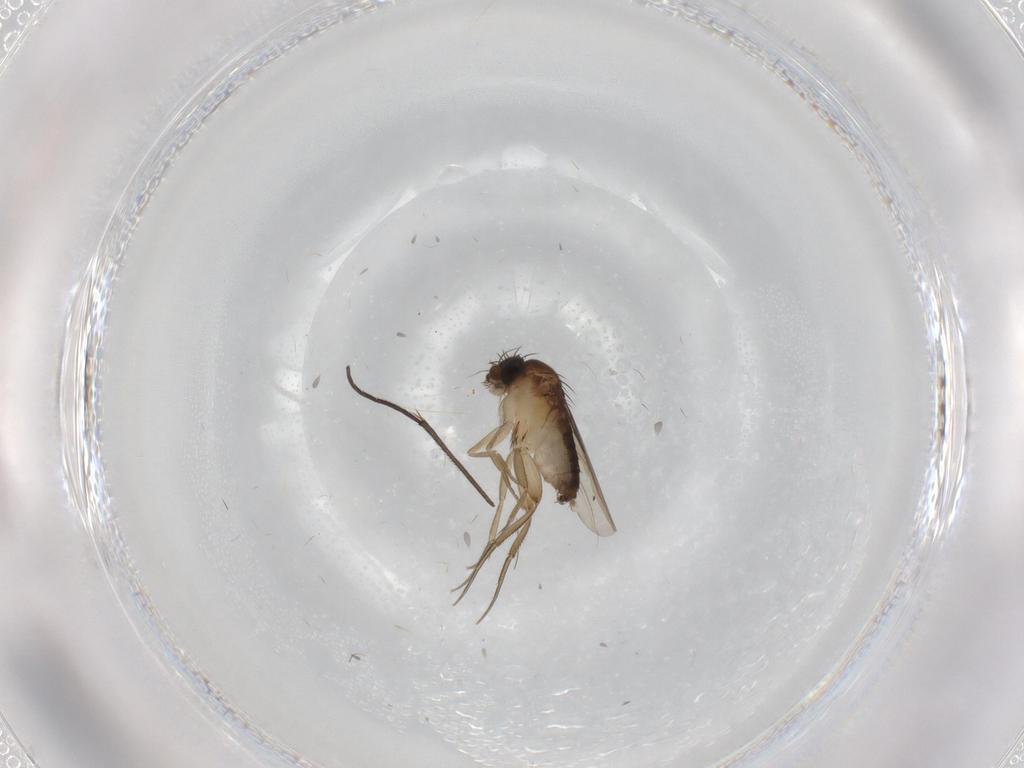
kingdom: Animalia
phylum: Arthropoda
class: Insecta
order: Diptera
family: Phoridae
